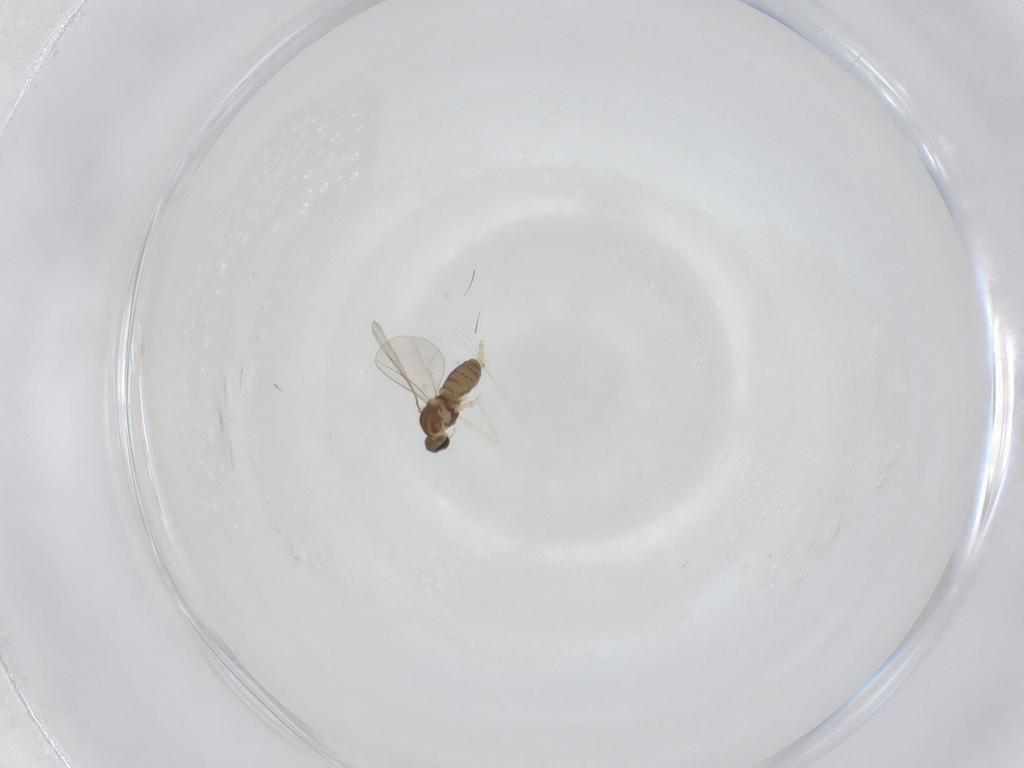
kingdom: Animalia
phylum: Arthropoda
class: Insecta
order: Diptera
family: Cecidomyiidae
